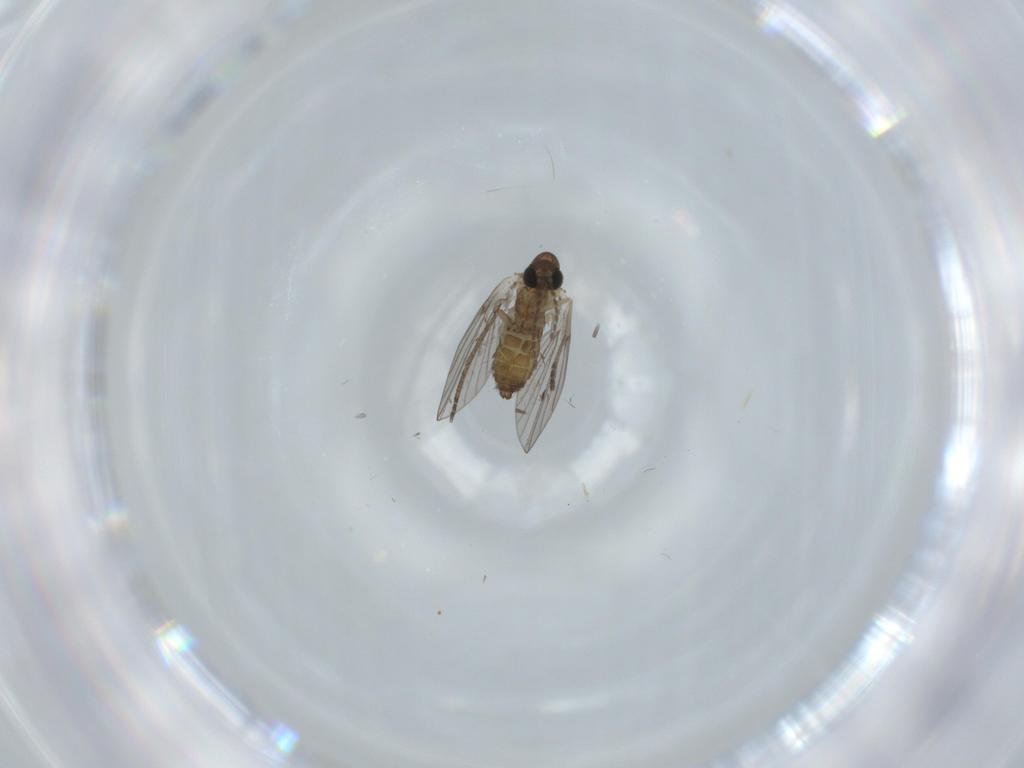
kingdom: Animalia
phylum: Arthropoda
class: Insecta
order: Diptera
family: Psychodidae
